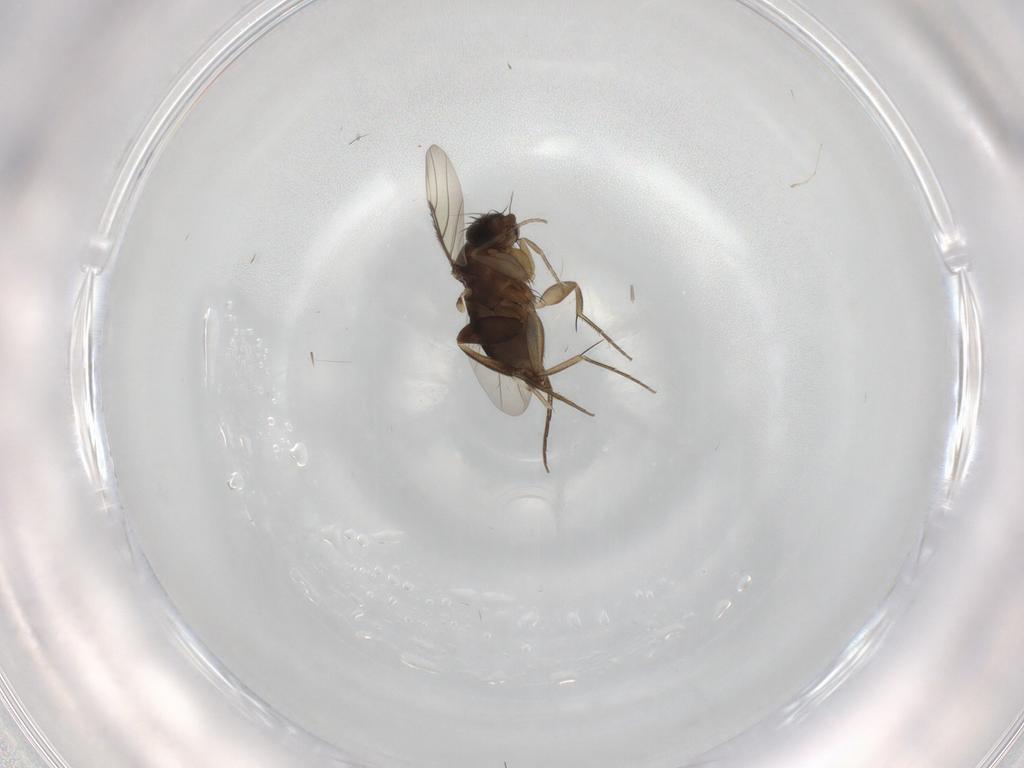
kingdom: Animalia
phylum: Arthropoda
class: Insecta
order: Diptera
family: Phoridae
